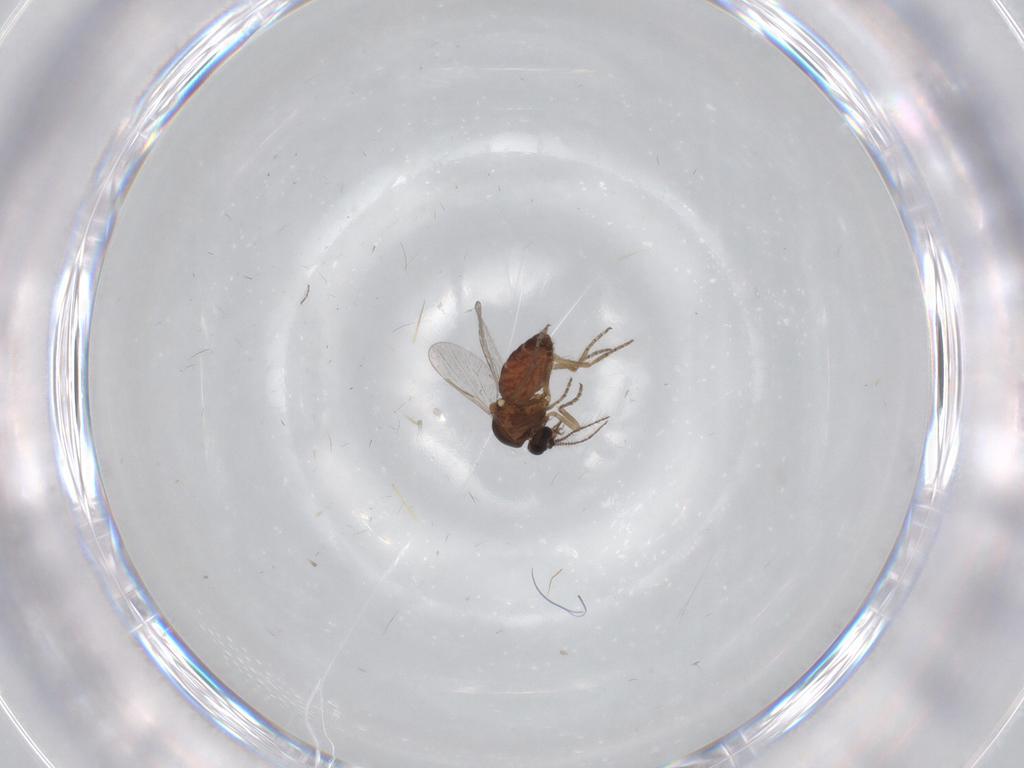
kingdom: Animalia
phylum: Arthropoda
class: Insecta
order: Diptera
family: Ceratopogonidae
